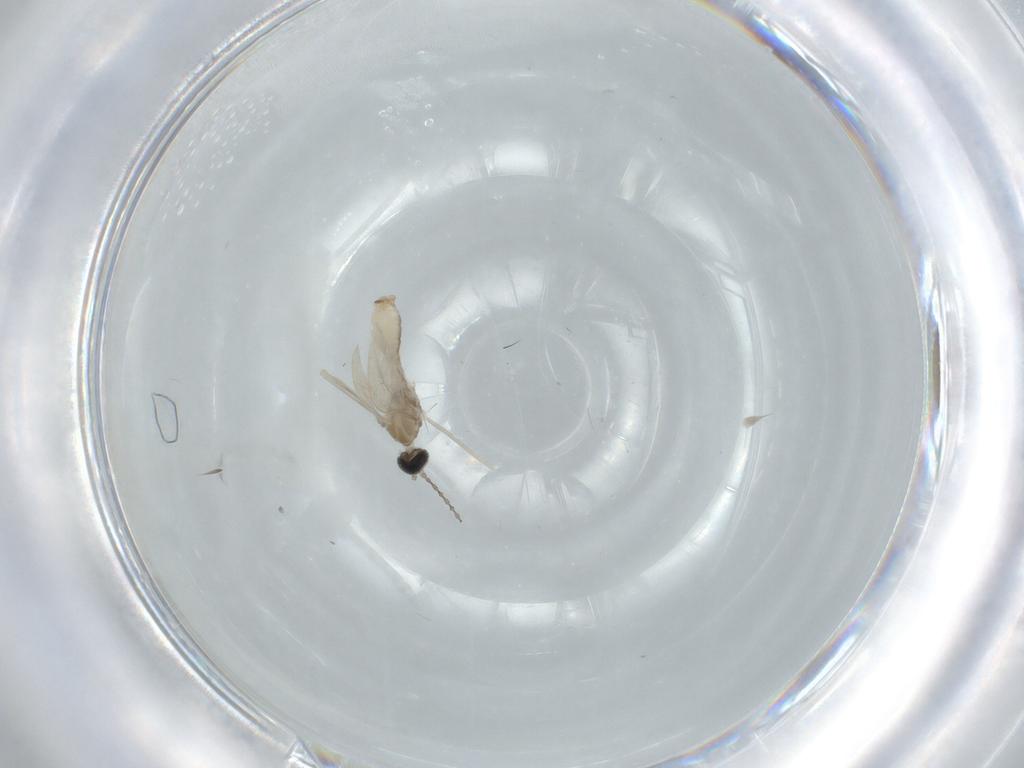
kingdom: Animalia
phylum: Arthropoda
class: Insecta
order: Diptera
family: Cecidomyiidae
